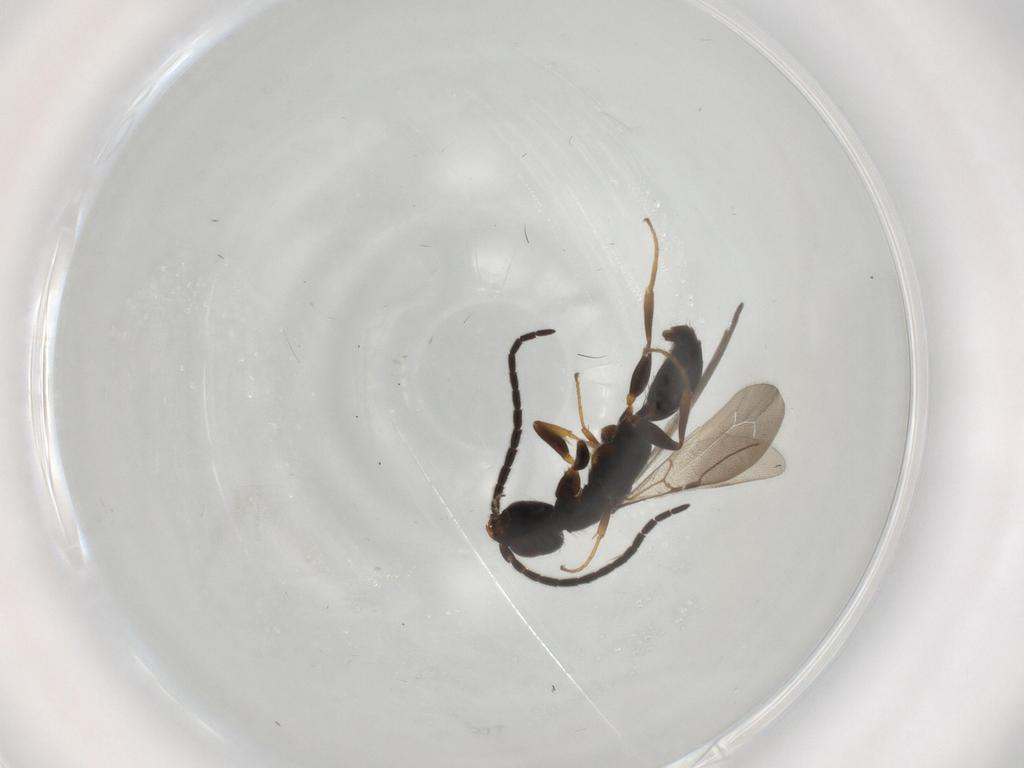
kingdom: Animalia
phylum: Arthropoda
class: Insecta
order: Hymenoptera
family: Bethylidae
